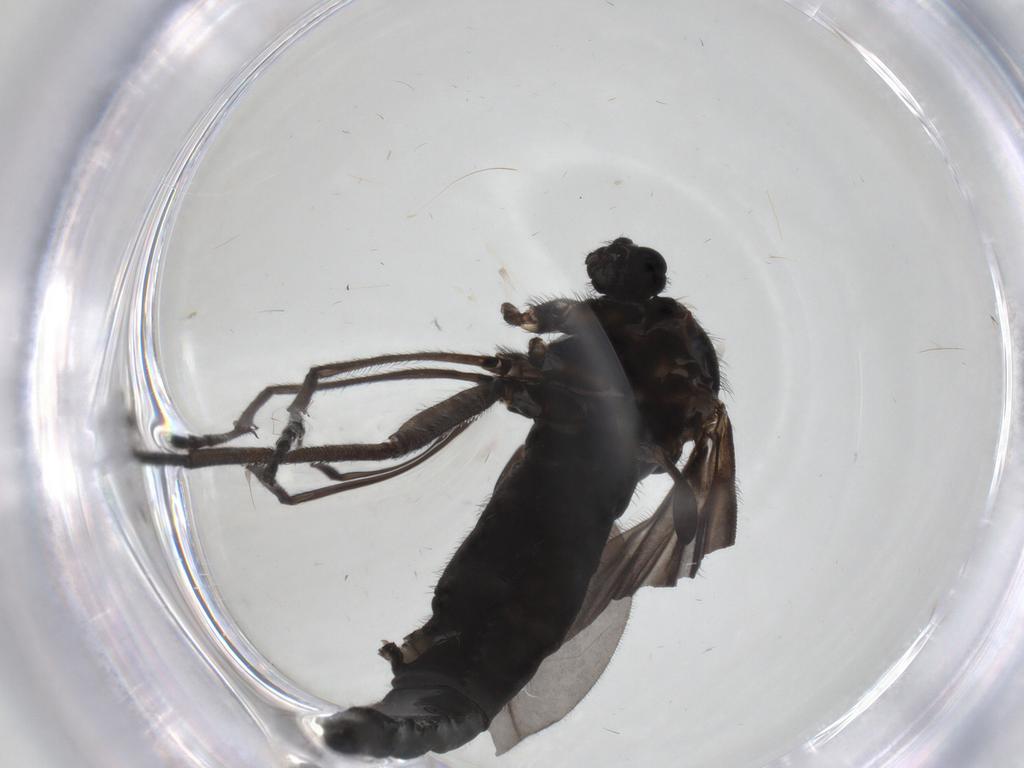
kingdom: Animalia
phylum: Arthropoda
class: Insecta
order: Diptera
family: Sciaridae
